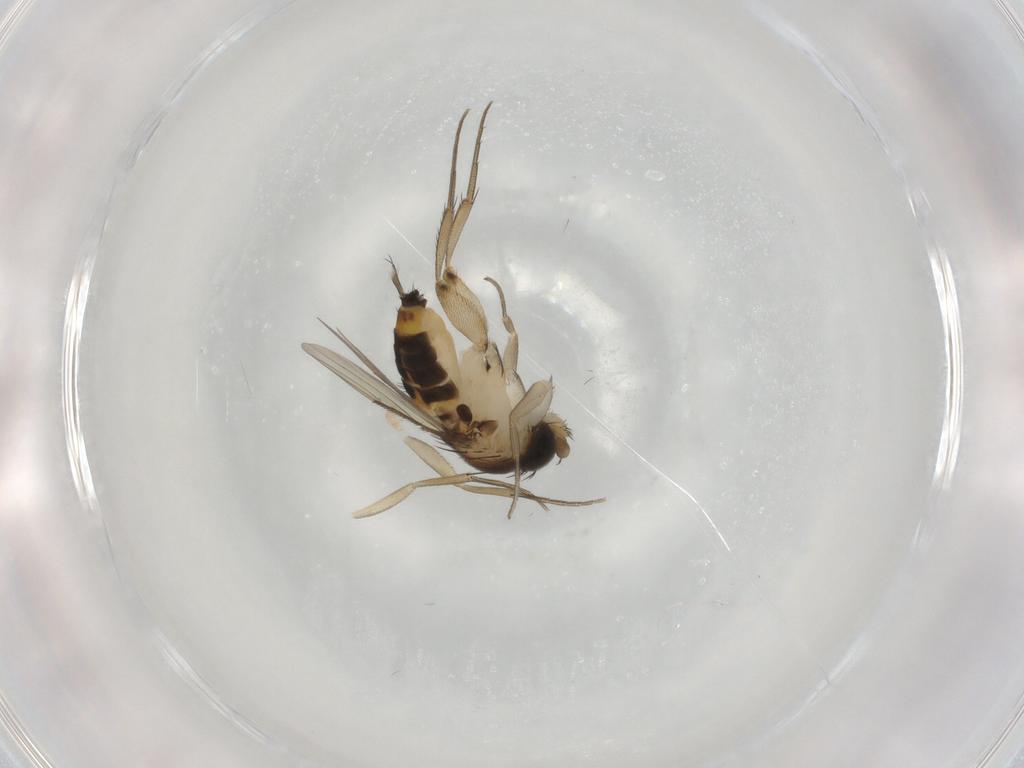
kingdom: Animalia
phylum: Arthropoda
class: Insecta
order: Diptera
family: Phoridae
